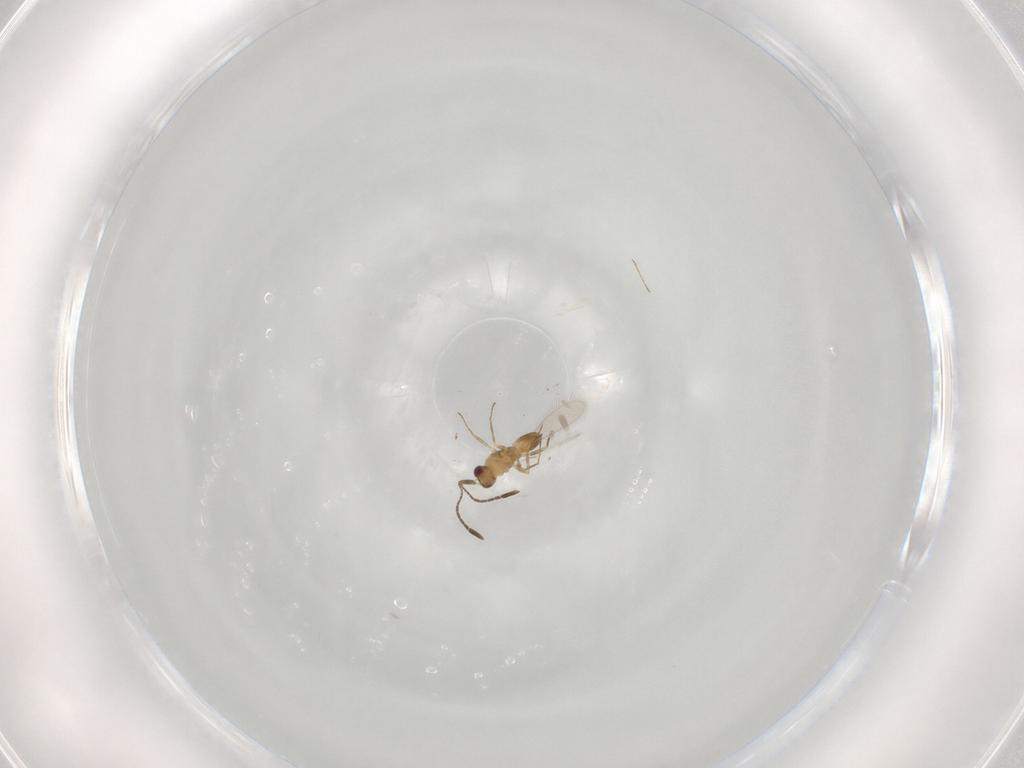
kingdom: Animalia
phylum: Arthropoda
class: Insecta
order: Hymenoptera
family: Mymaridae
